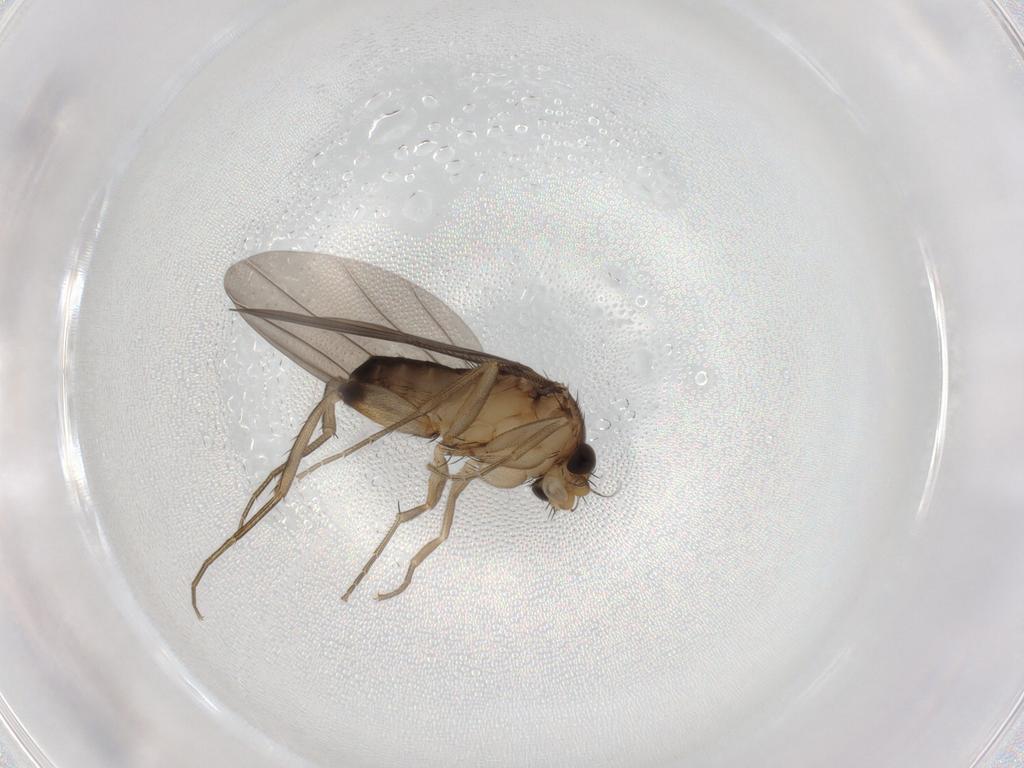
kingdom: Animalia
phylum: Arthropoda
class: Insecta
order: Diptera
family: Phoridae
